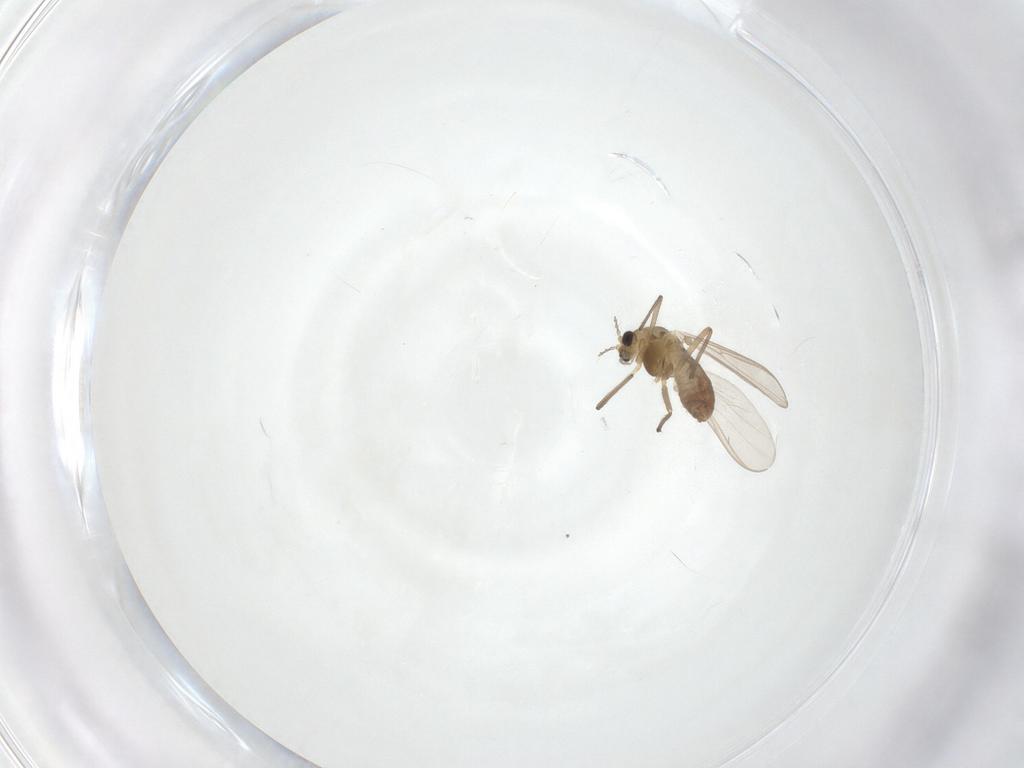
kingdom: Animalia
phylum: Arthropoda
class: Insecta
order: Diptera
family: Chironomidae
